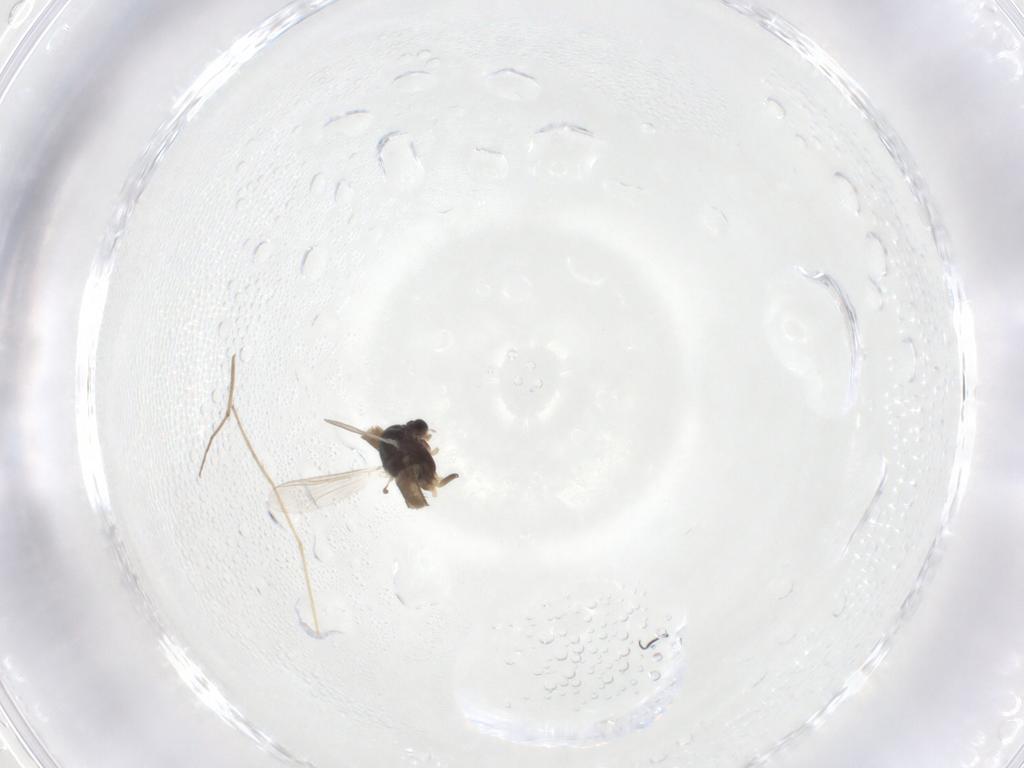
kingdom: Animalia
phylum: Arthropoda
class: Insecta
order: Diptera
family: Chironomidae
